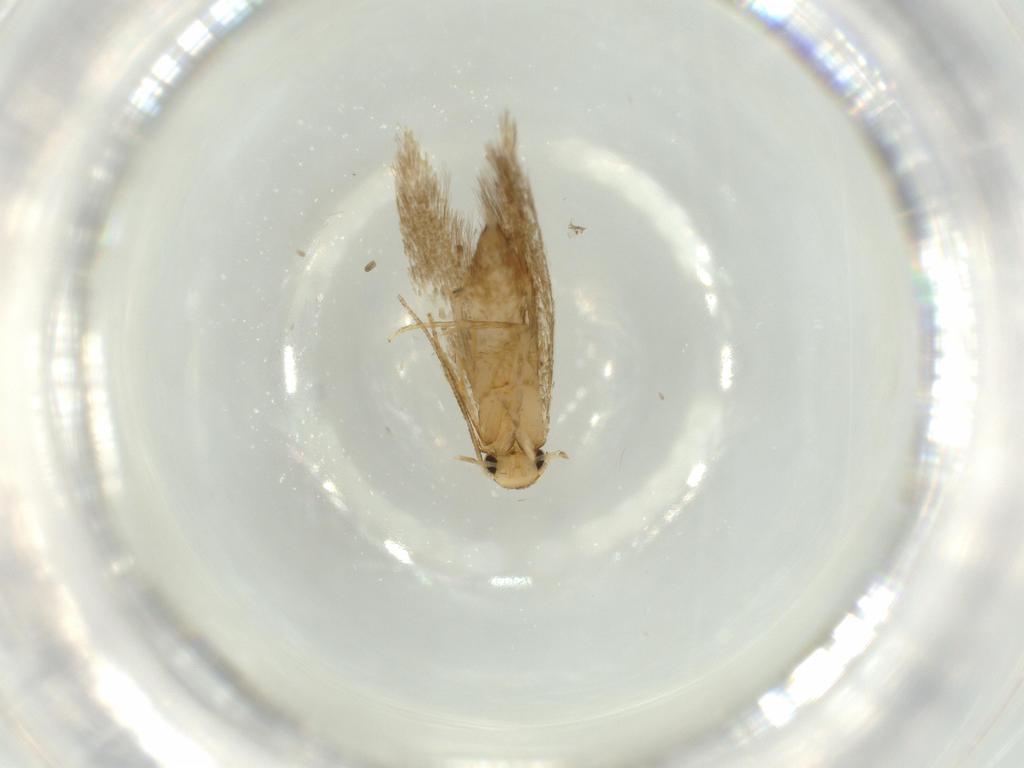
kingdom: Animalia
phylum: Arthropoda
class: Insecta
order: Lepidoptera
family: Tineidae
